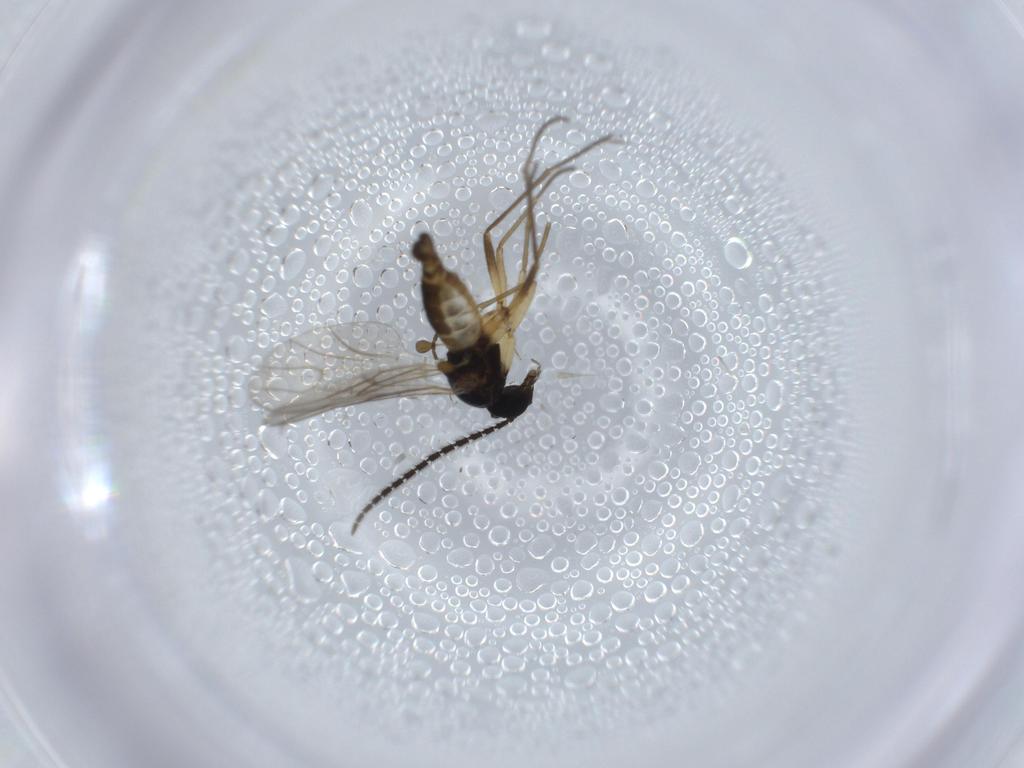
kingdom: Animalia
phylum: Arthropoda
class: Insecta
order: Diptera
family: Sciaridae
